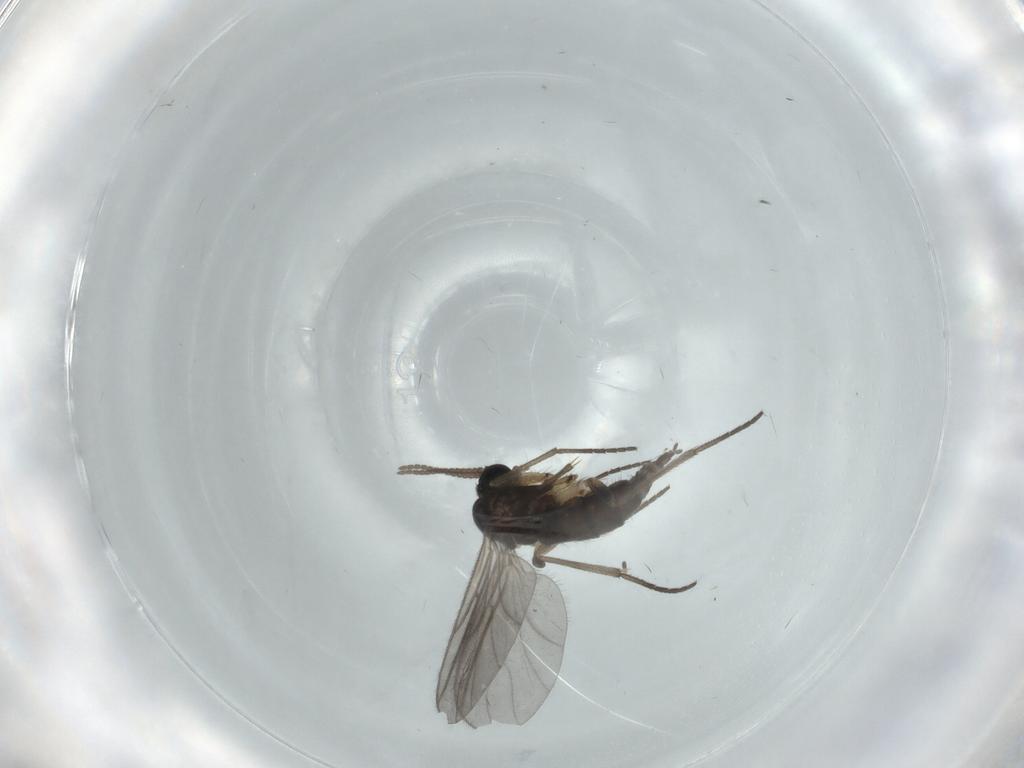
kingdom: Animalia
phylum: Arthropoda
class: Insecta
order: Diptera
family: Sciaridae
